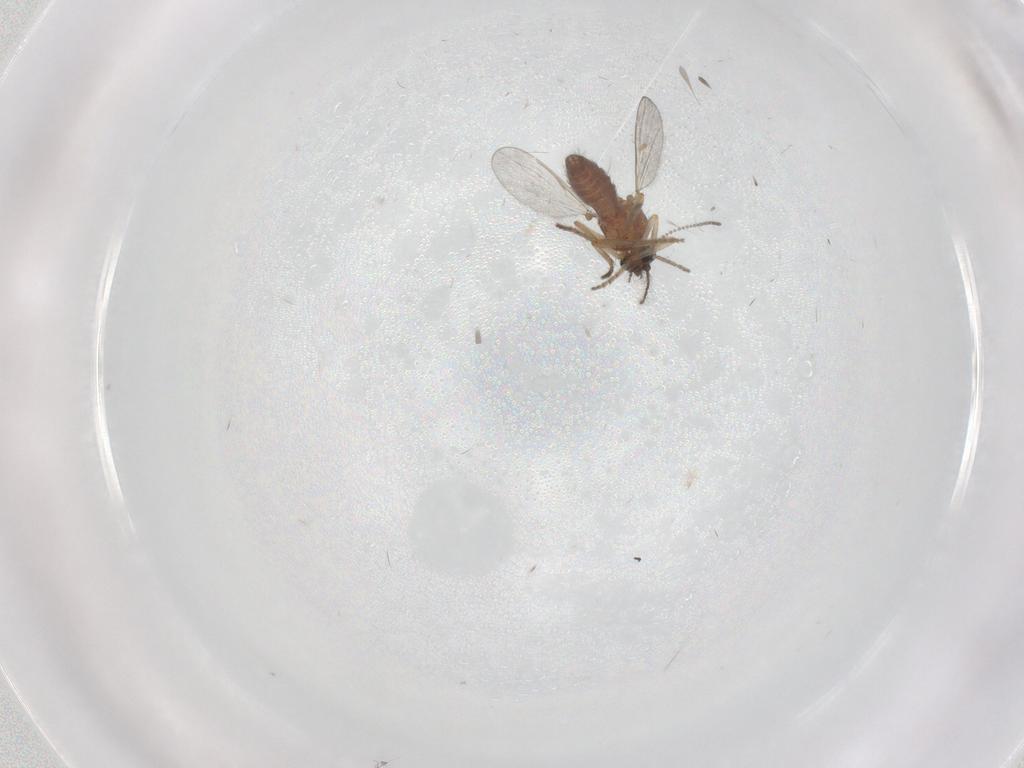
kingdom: Animalia
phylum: Arthropoda
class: Insecta
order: Diptera
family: Ceratopogonidae
